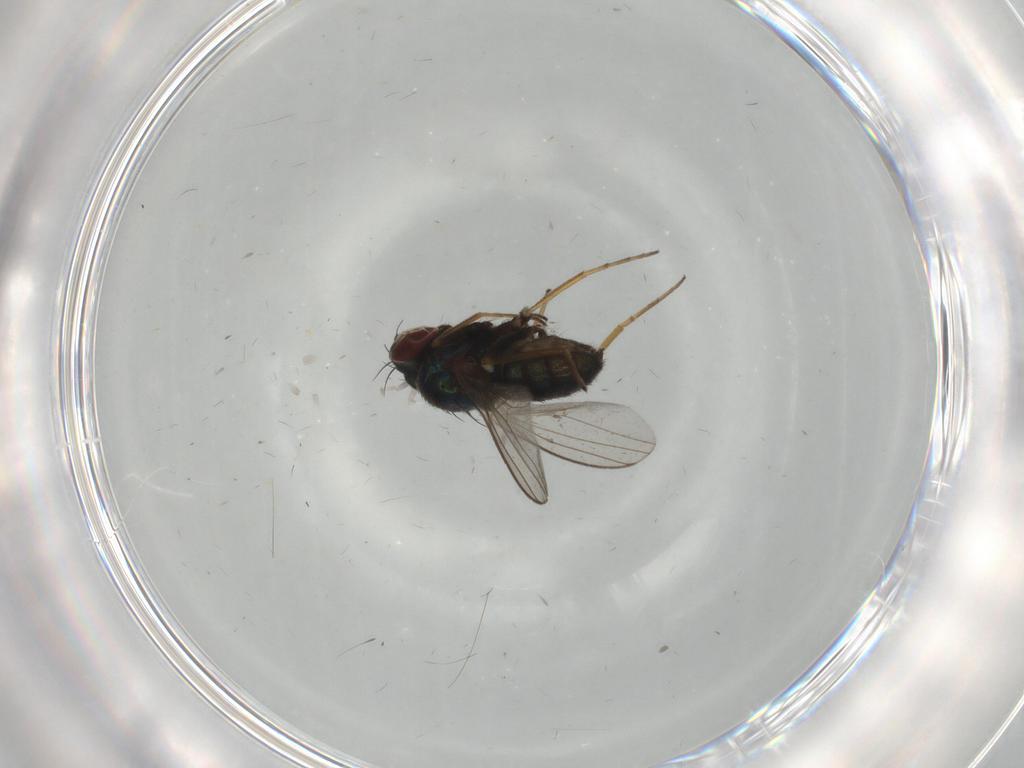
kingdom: Animalia
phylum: Arthropoda
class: Insecta
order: Diptera
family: Dolichopodidae
